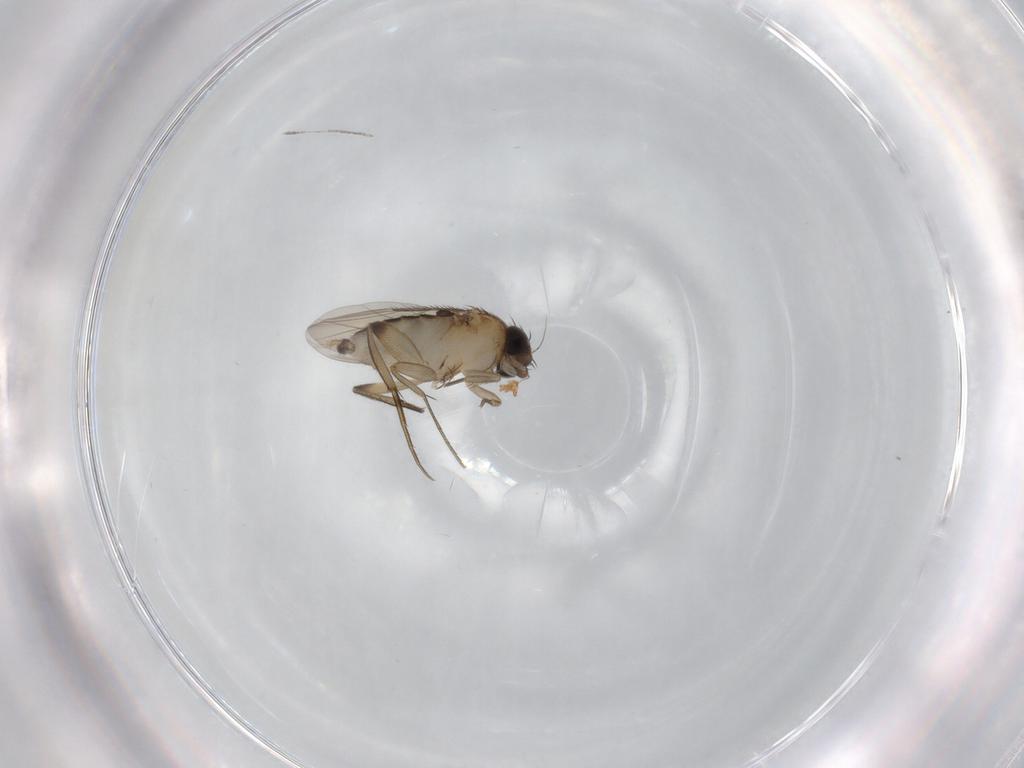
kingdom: Animalia
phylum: Arthropoda
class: Insecta
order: Diptera
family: Phoridae
